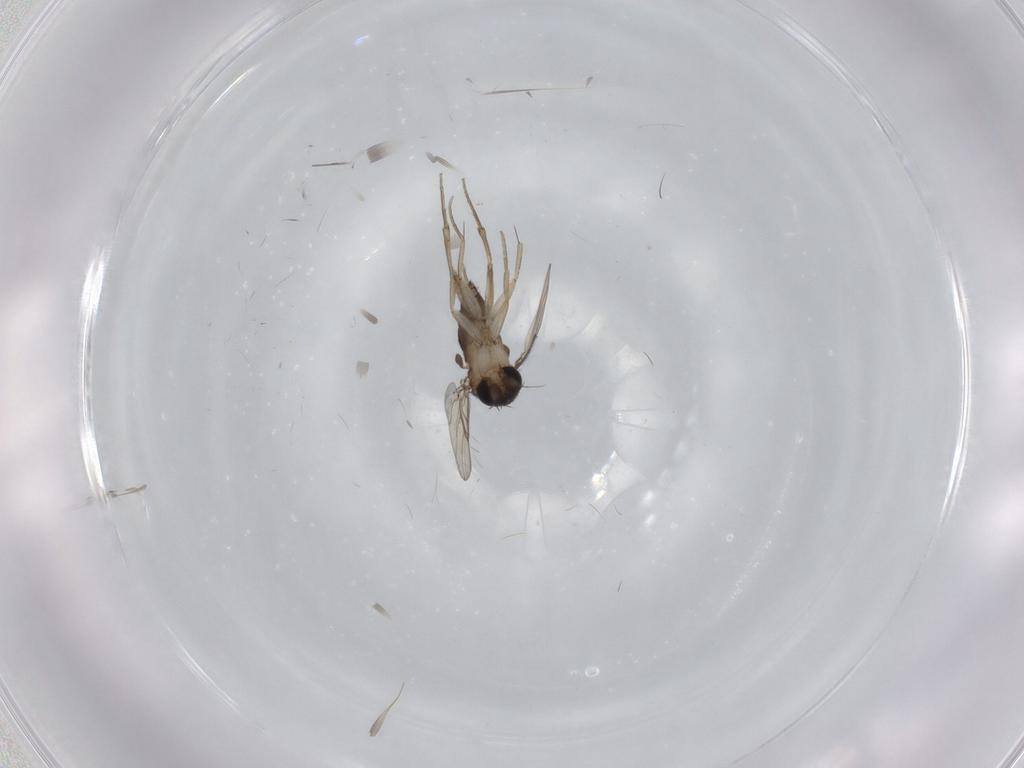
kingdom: Animalia
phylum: Arthropoda
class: Insecta
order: Diptera
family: Phoridae
